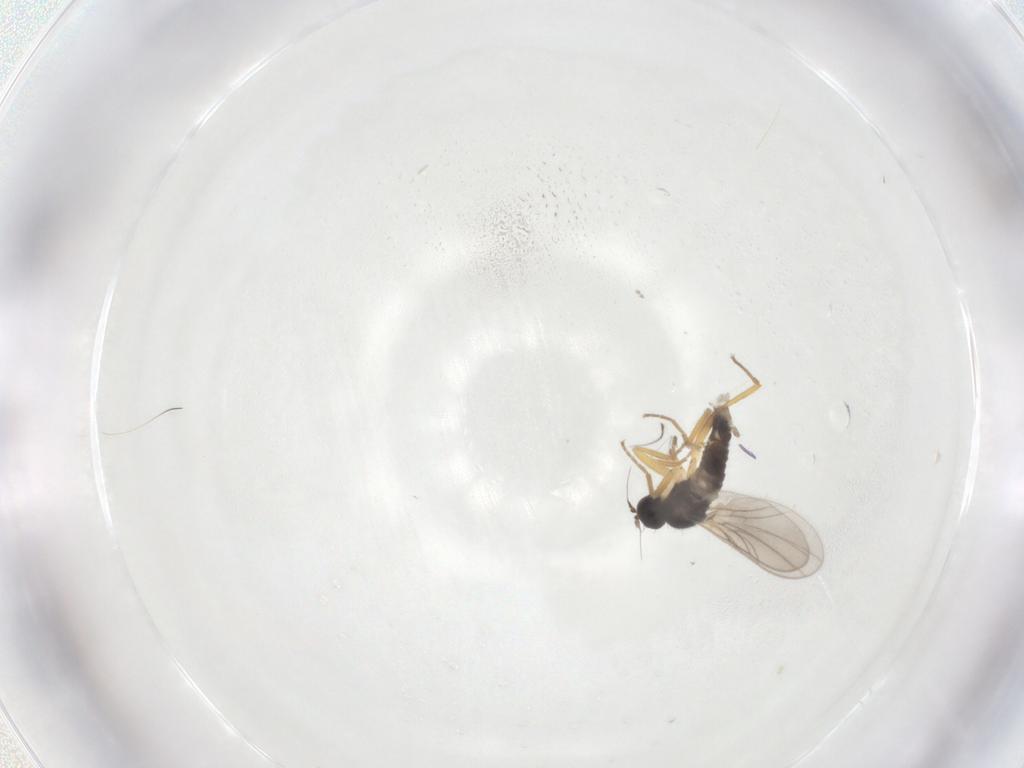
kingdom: Animalia
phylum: Arthropoda
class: Insecta
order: Diptera
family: Hybotidae
